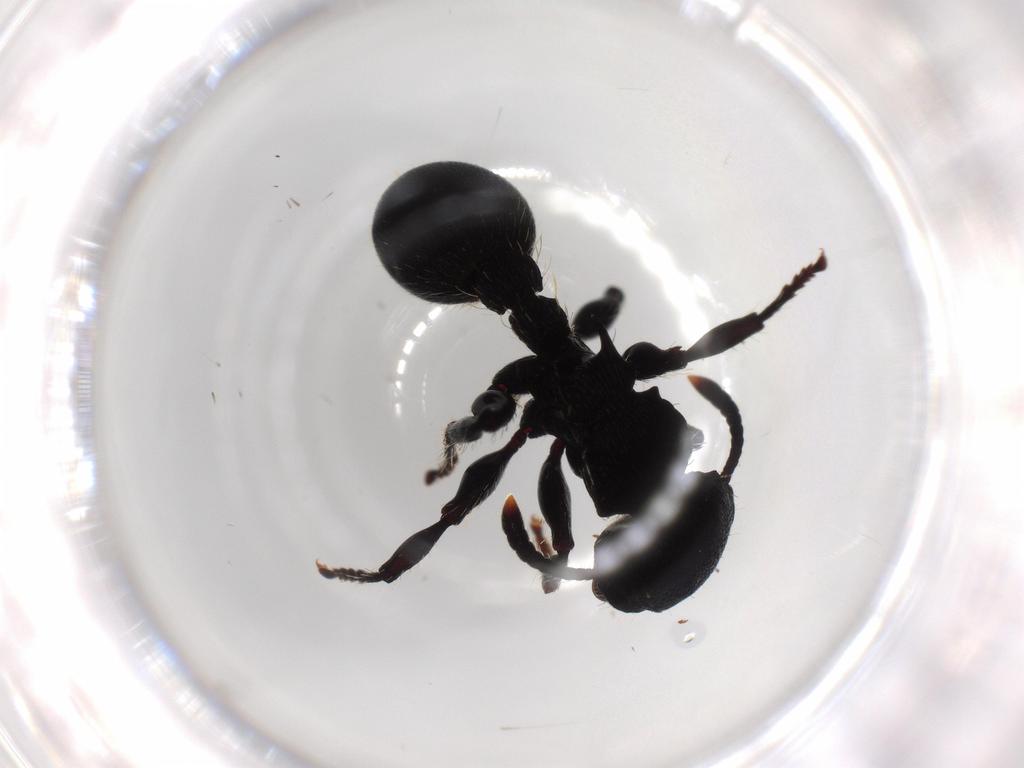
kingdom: Animalia
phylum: Arthropoda
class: Insecta
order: Hymenoptera
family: Formicidae
